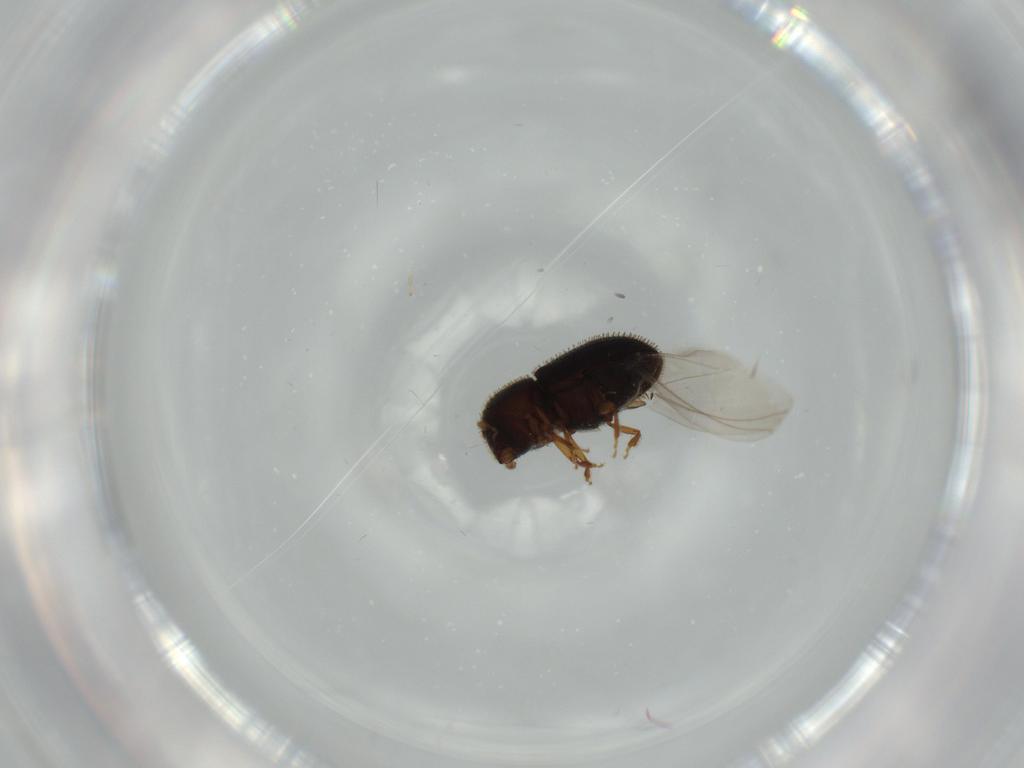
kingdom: Animalia
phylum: Arthropoda
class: Insecta
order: Coleoptera
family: Curculionidae
